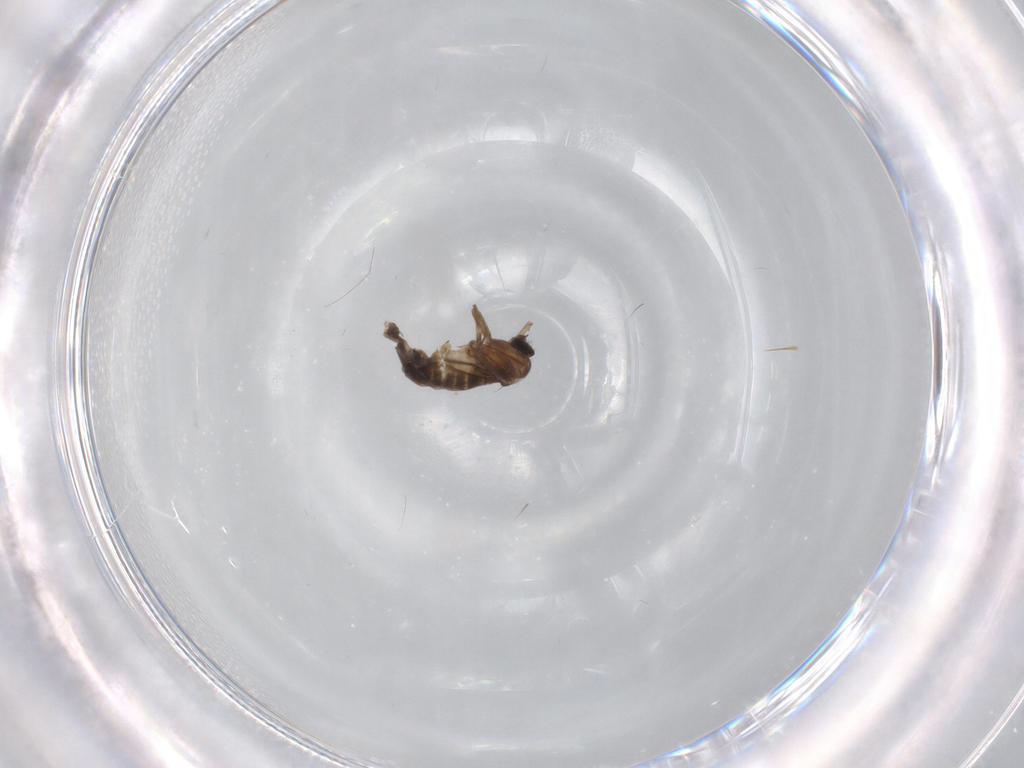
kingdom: Animalia
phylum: Arthropoda
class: Insecta
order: Diptera
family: Phoridae
